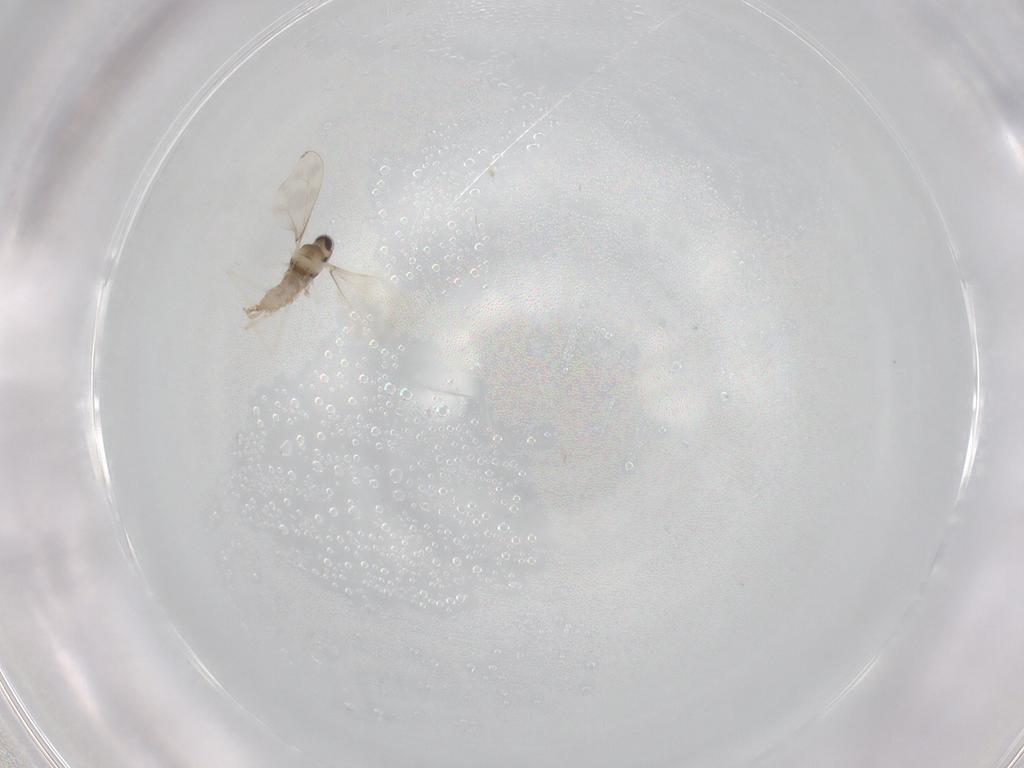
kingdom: Animalia
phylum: Arthropoda
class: Insecta
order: Diptera
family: Cecidomyiidae
